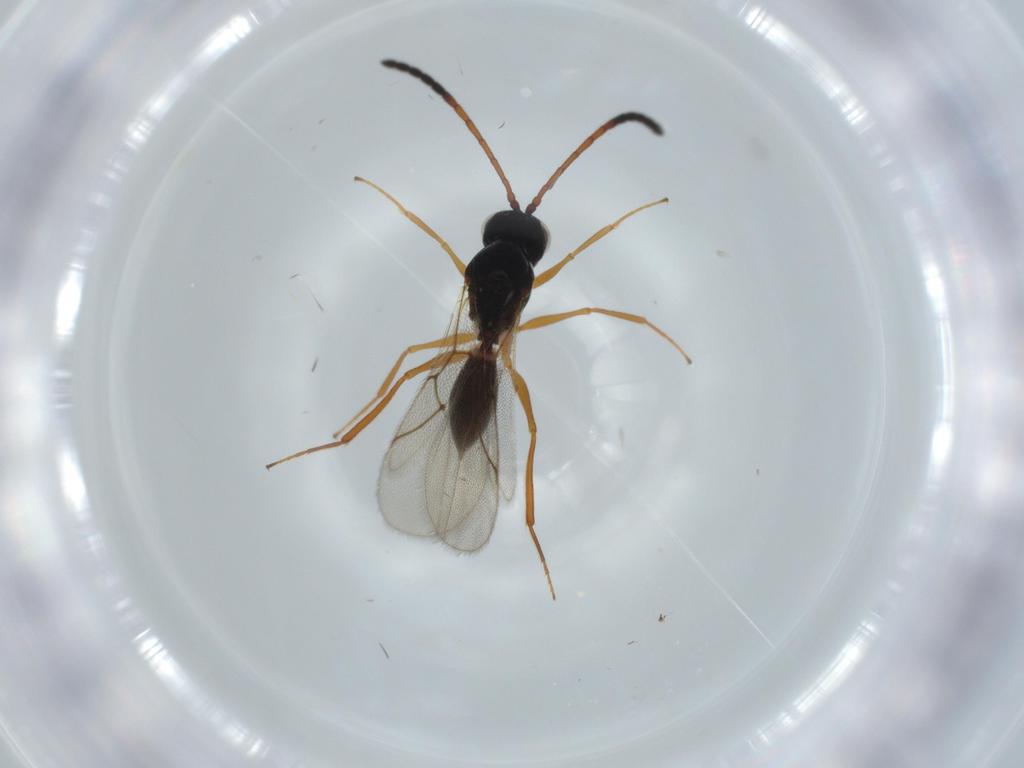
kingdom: Animalia
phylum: Arthropoda
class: Insecta
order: Hymenoptera
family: Figitidae
